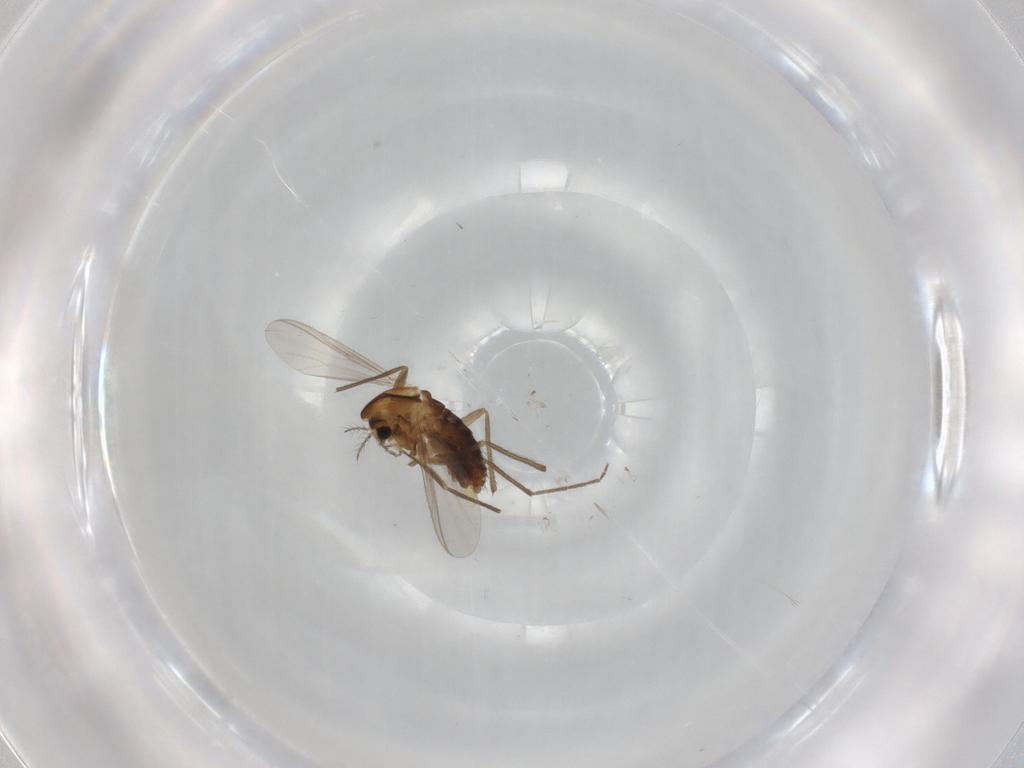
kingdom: Animalia
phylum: Arthropoda
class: Insecta
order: Diptera
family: Chironomidae
